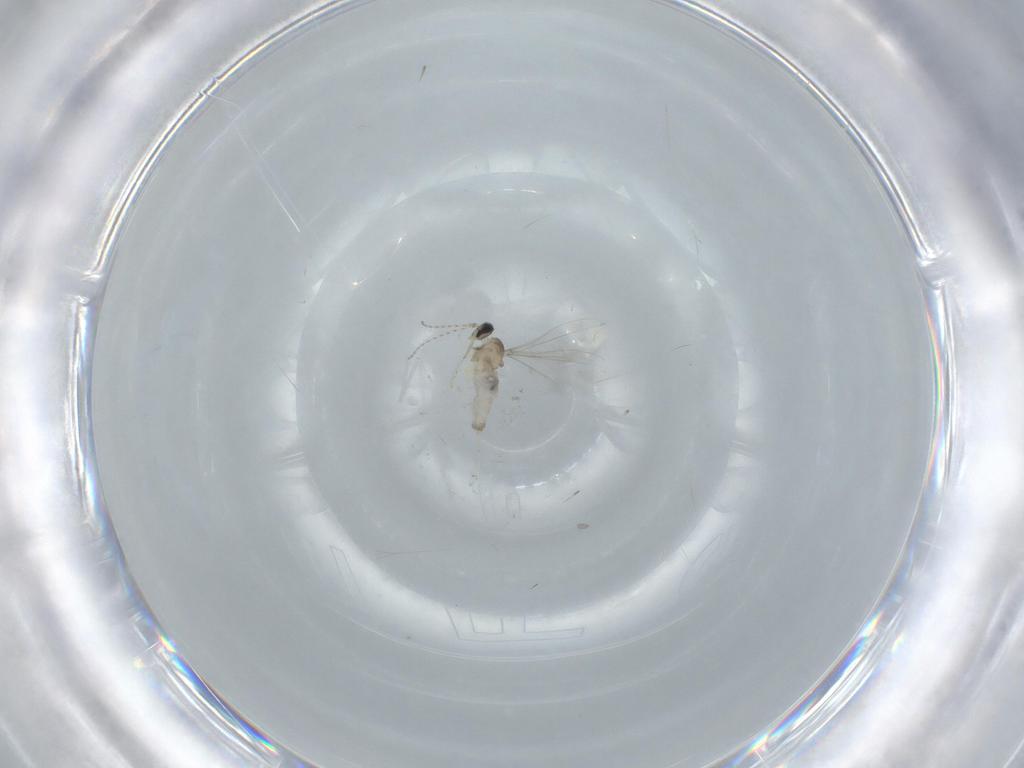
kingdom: Animalia
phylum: Arthropoda
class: Insecta
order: Diptera
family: Cecidomyiidae
